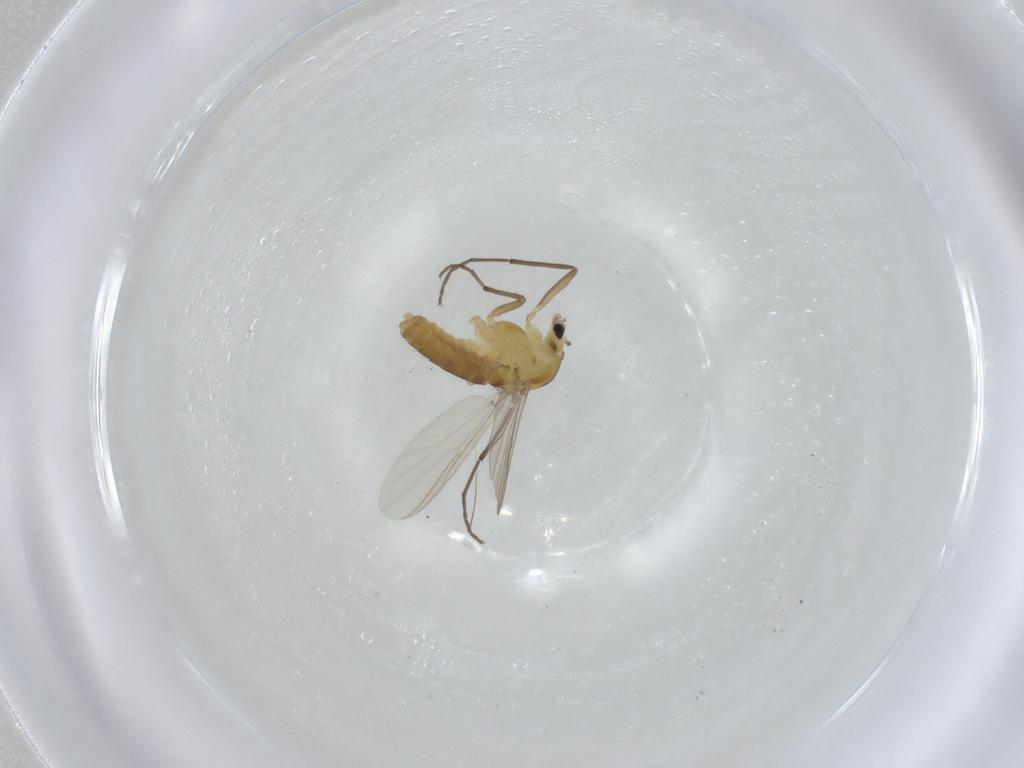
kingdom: Animalia
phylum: Arthropoda
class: Insecta
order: Diptera
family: Chironomidae
